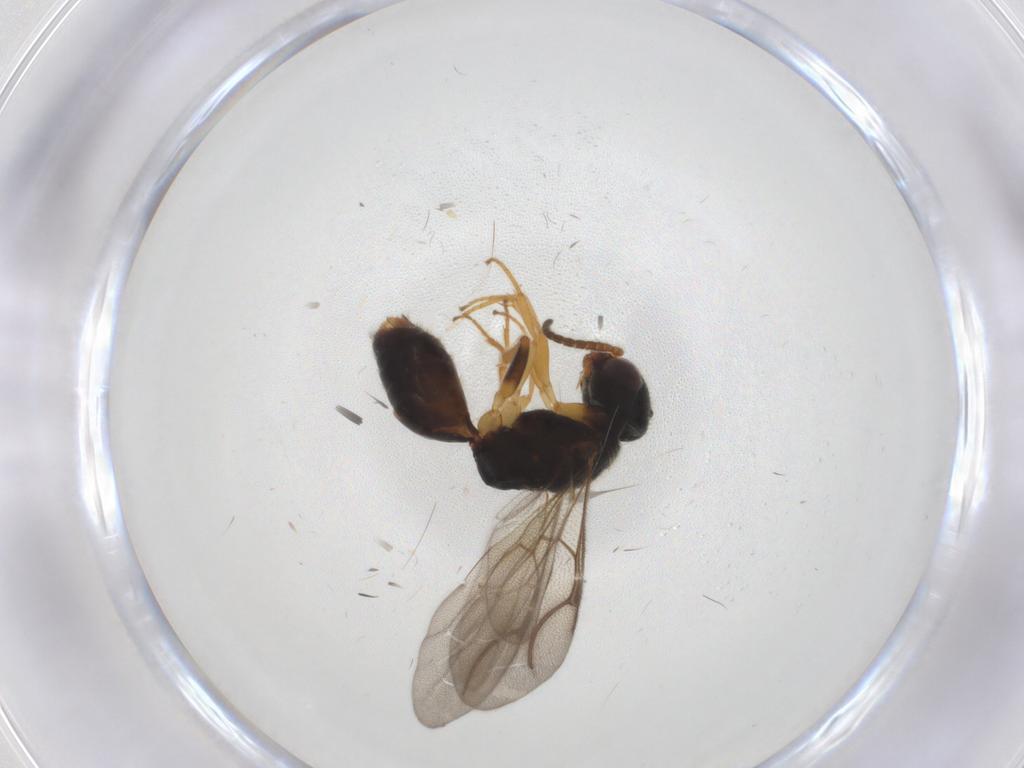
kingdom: Animalia
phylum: Arthropoda
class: Insecta
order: Hymenoptera
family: Bethylidae
